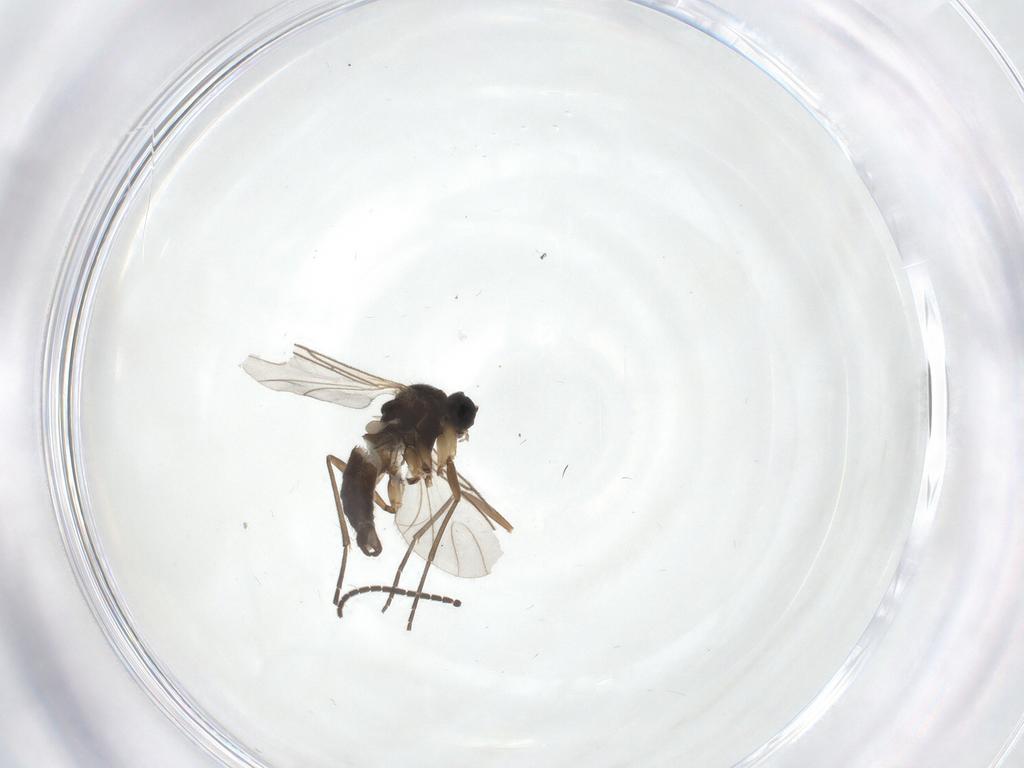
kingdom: Animalia
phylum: Arthropoda
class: Insecta
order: Diptera
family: Sciaridae
